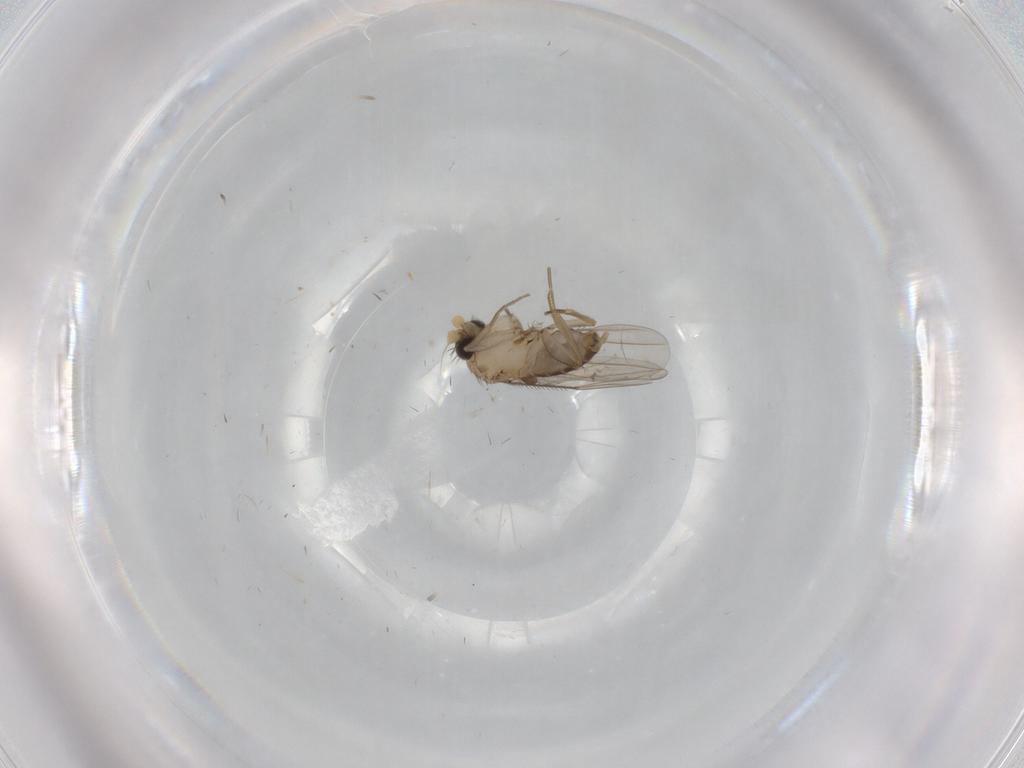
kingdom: Animalia
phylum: Arthropoda
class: Insecta
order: Diptera
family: Phoridae
